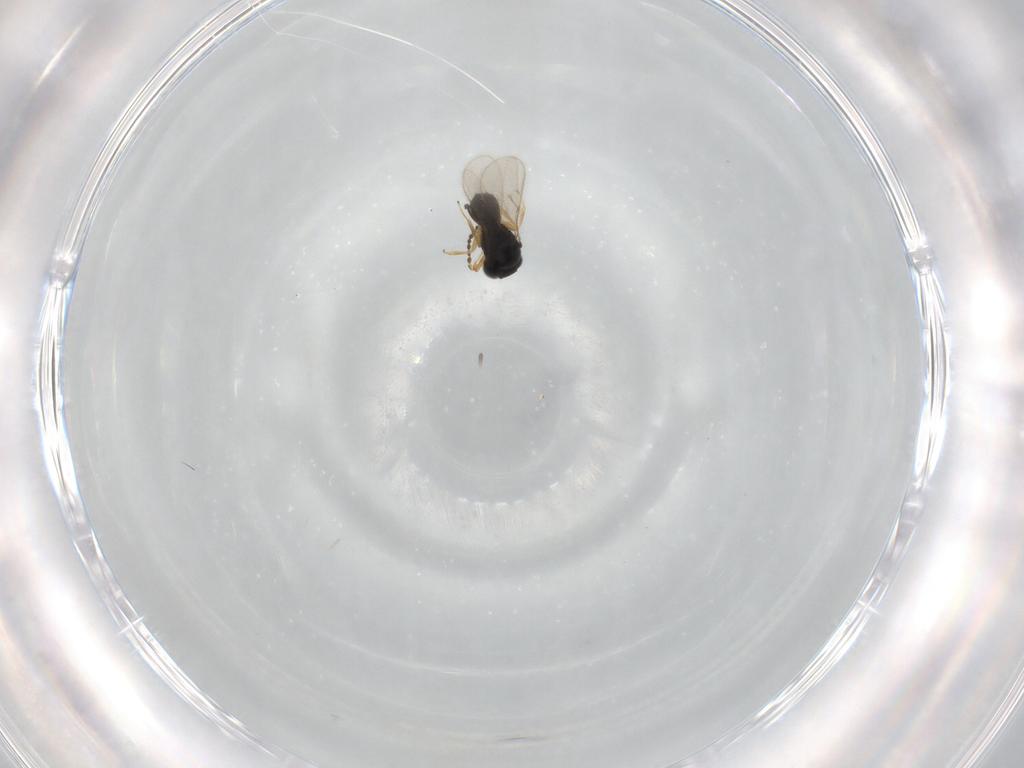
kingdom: Animalia
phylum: Arthropoda
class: Insecta
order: Hymenoptera
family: Scelionidae
